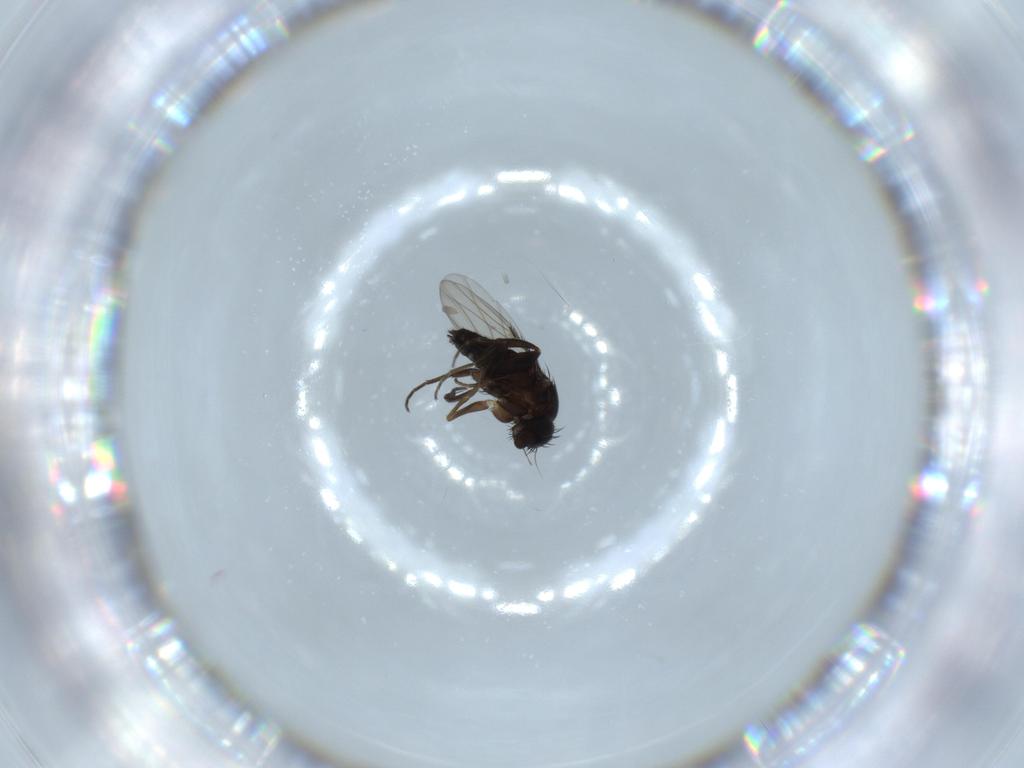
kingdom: Animalia
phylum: Arthropoda
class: Insecta
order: Diptera
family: Phoridae
